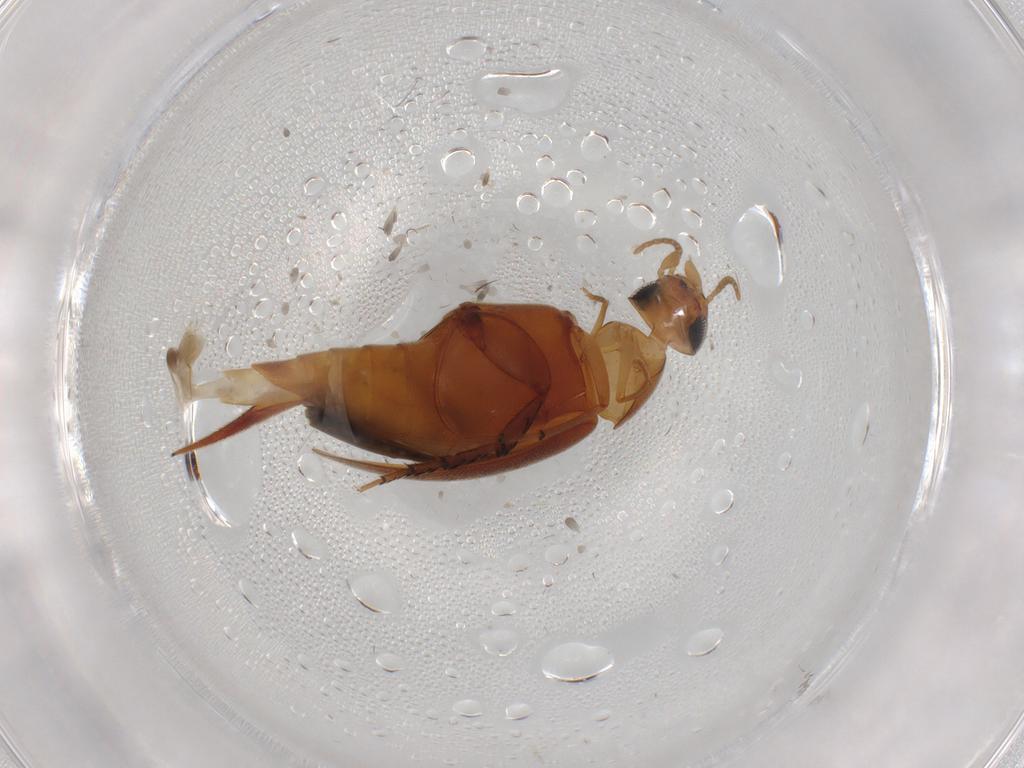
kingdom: Animalia
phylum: Arthropoda
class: Insecta
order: Coleoptera
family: Mordellidae
